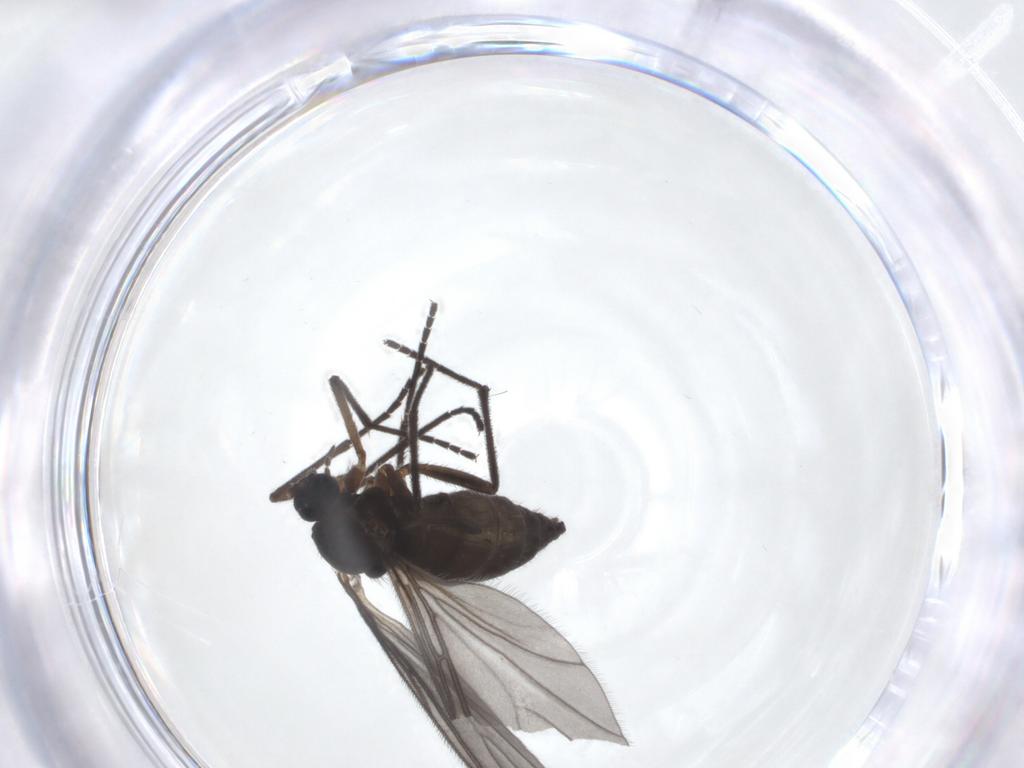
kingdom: Animalia
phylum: Arthropoda
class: Insecta
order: Diptera
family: Sciaridae
